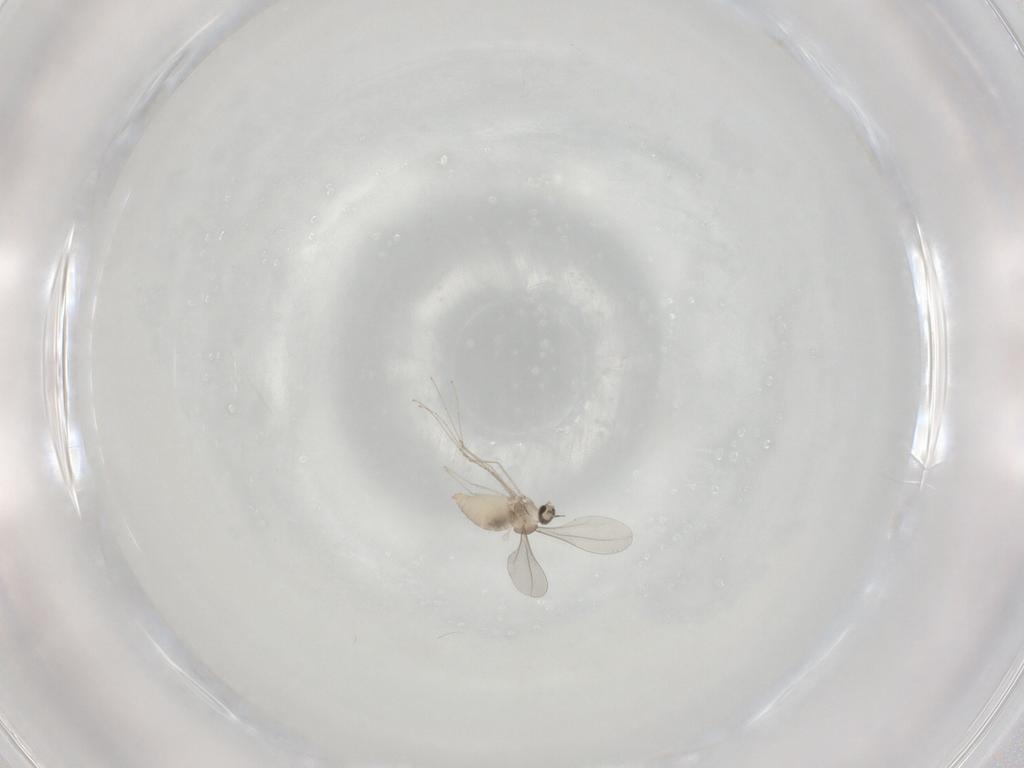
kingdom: Animalia
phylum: Arthropoda
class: Insecta
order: Diptera
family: Cecidomyiidae
